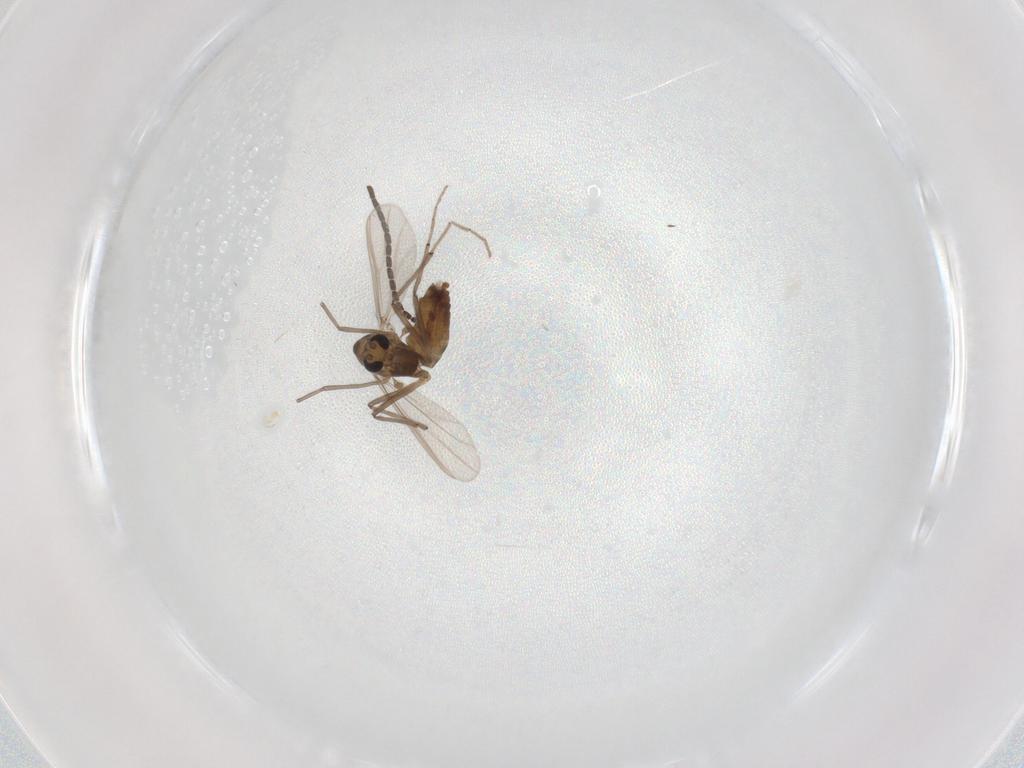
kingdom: Animalia
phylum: Arthropoda
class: Insecta
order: Diptera
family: Chironomidae
